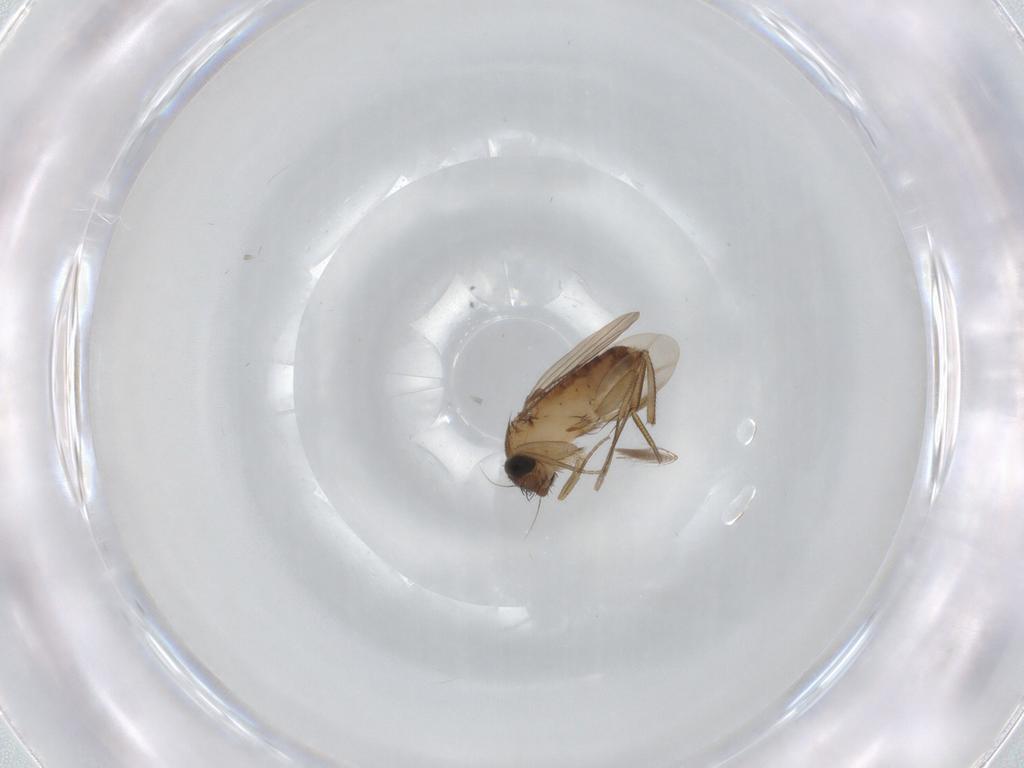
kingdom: Animalia
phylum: Arthropoda
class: Insecta
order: Diptera
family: Phoridae
